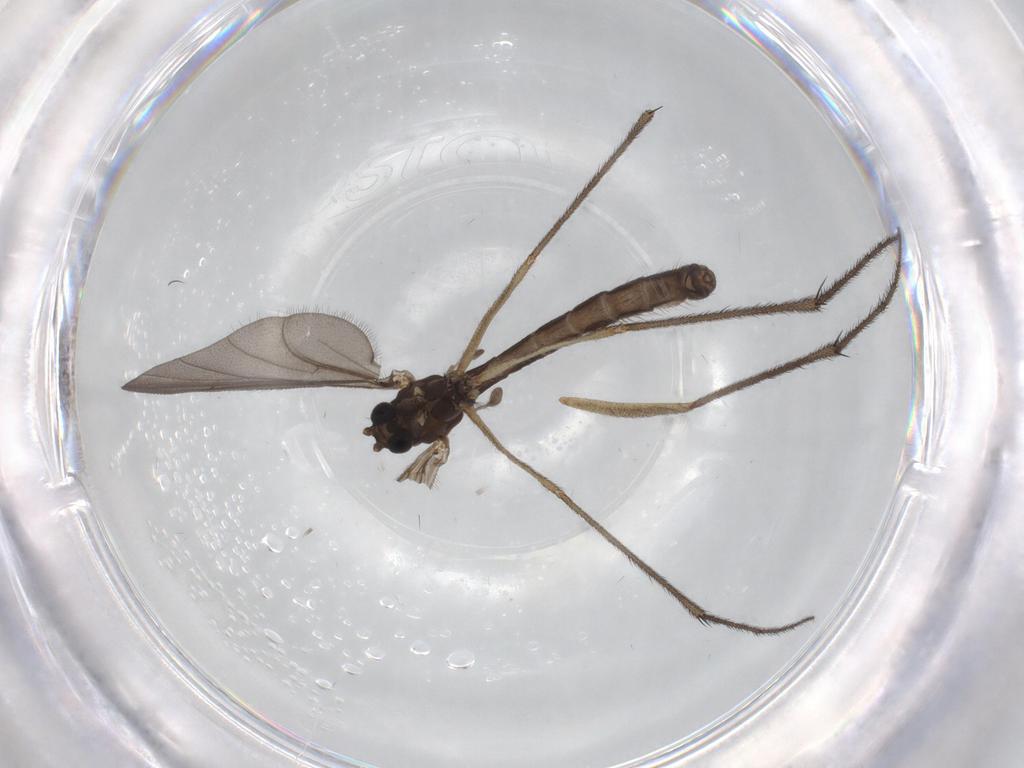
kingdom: Animalia
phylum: Arthropoda
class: Insecta
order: Diptera
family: Ditomyiidae
